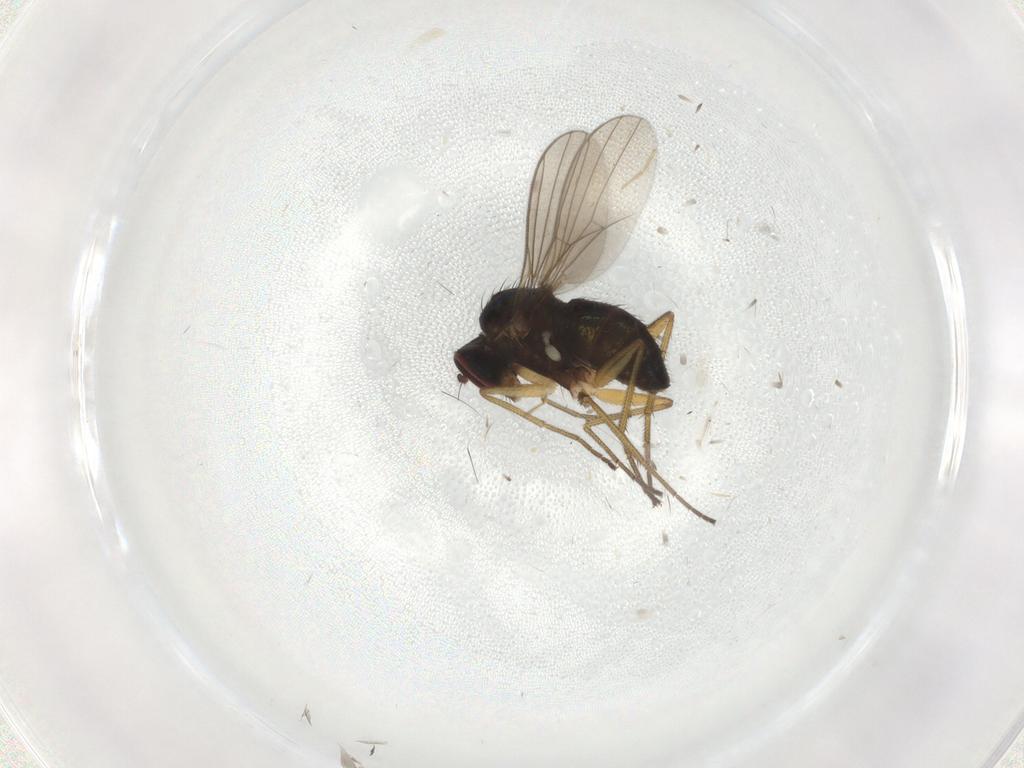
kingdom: Animalia
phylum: Arthropoda
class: Insecta
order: Diptera
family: Dolichopodidae
